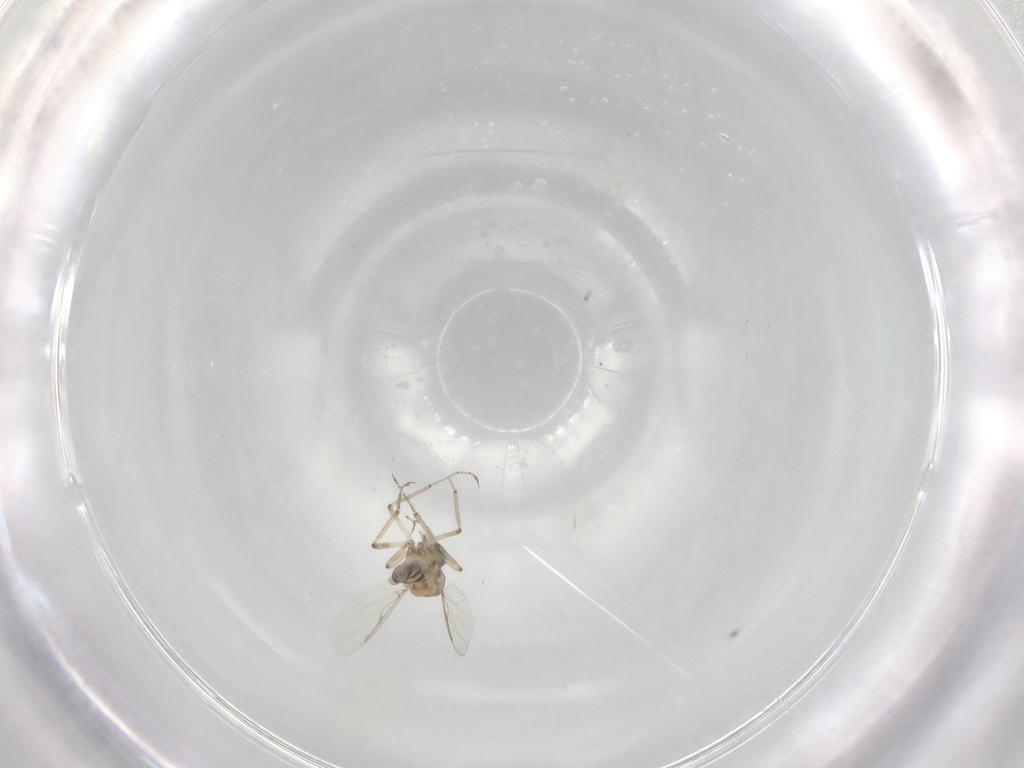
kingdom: Animalia
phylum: Arthropoda
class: Insecta
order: Diptera
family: Ceratopogonidae
